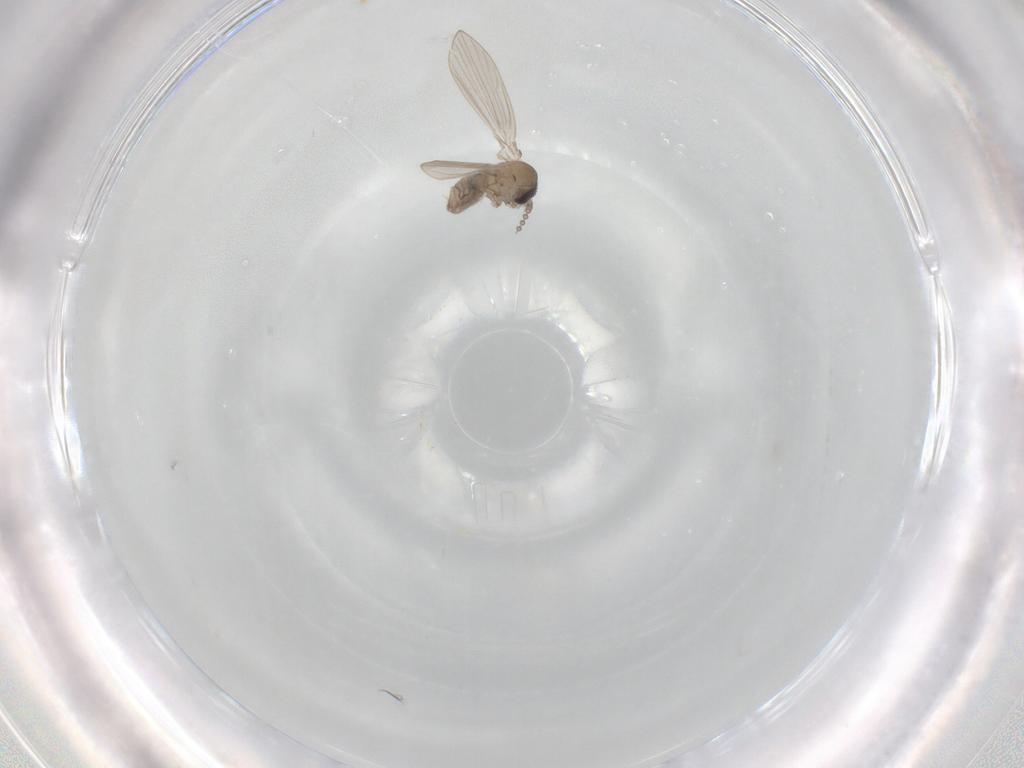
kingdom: Animalia
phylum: Arthropoda
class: Insecta
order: Diptera
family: Psychodidae
